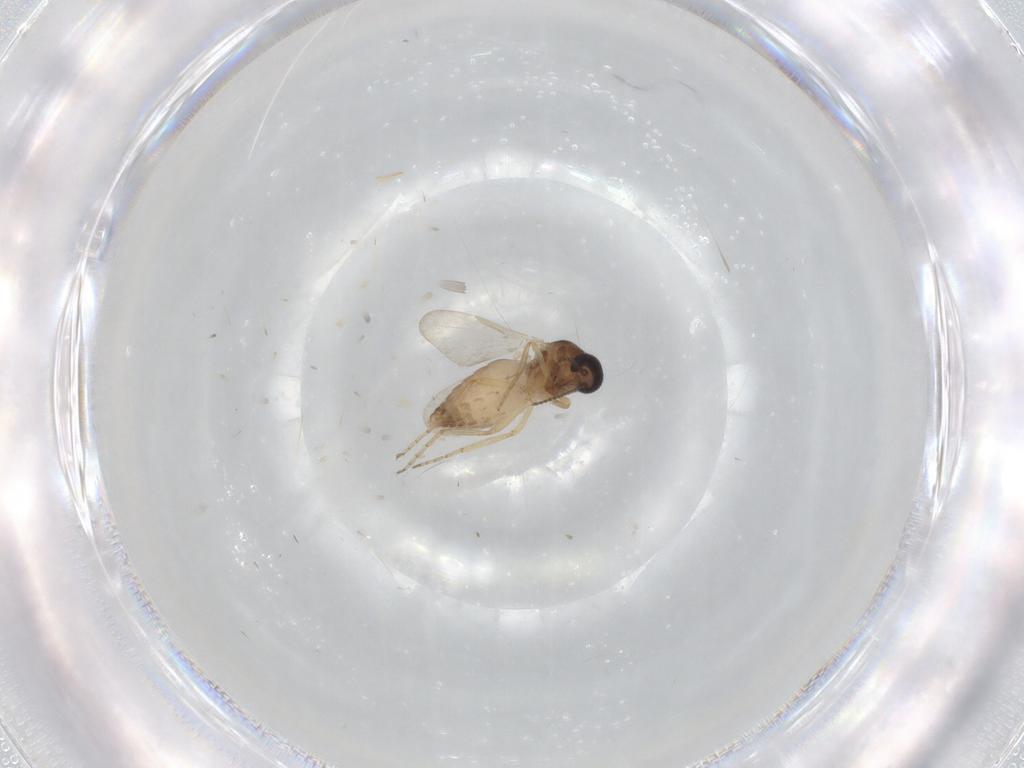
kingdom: Animalia
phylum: Arthropoda
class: Insecta
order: Diptera
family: Ceratopogonidae
